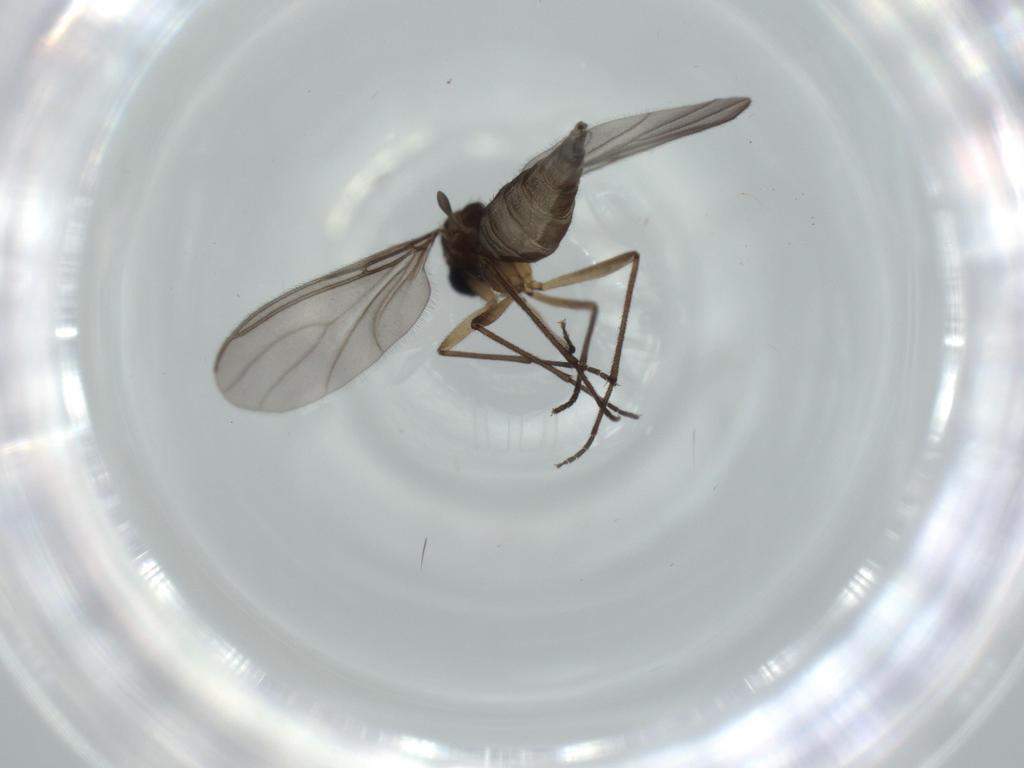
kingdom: Animalia
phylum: Arthropoda
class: Insecta
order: Diptera
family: Sciaridae
